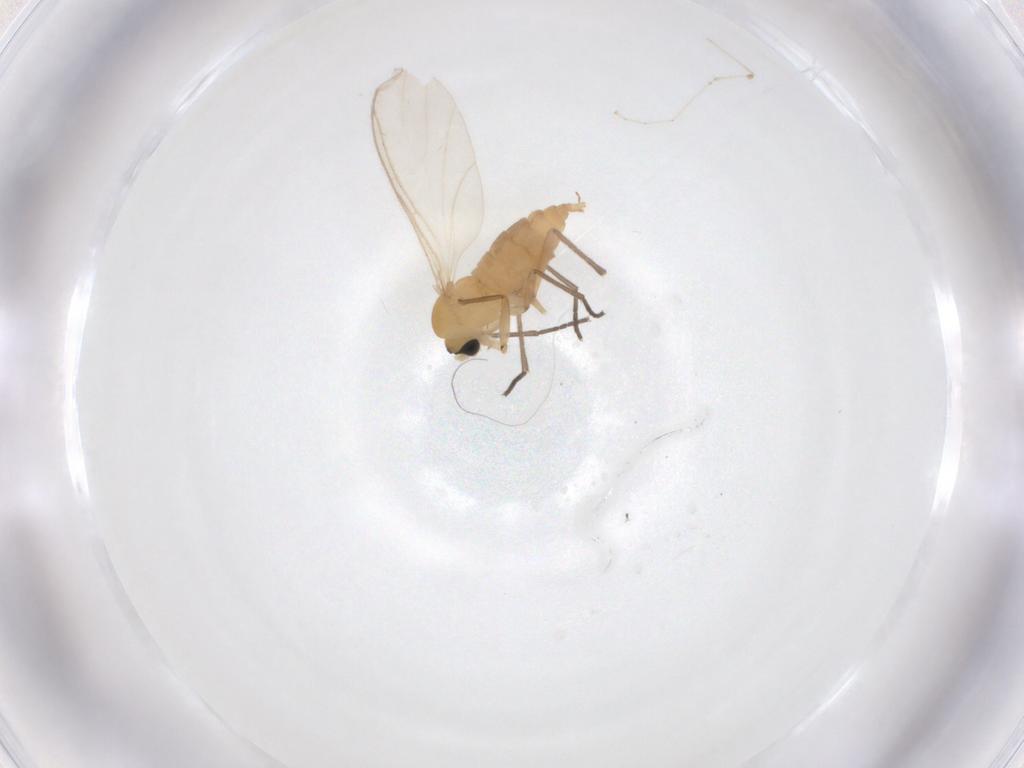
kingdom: Animalia
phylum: Arthropoda
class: Insecta
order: Diptera
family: Sciaridae
